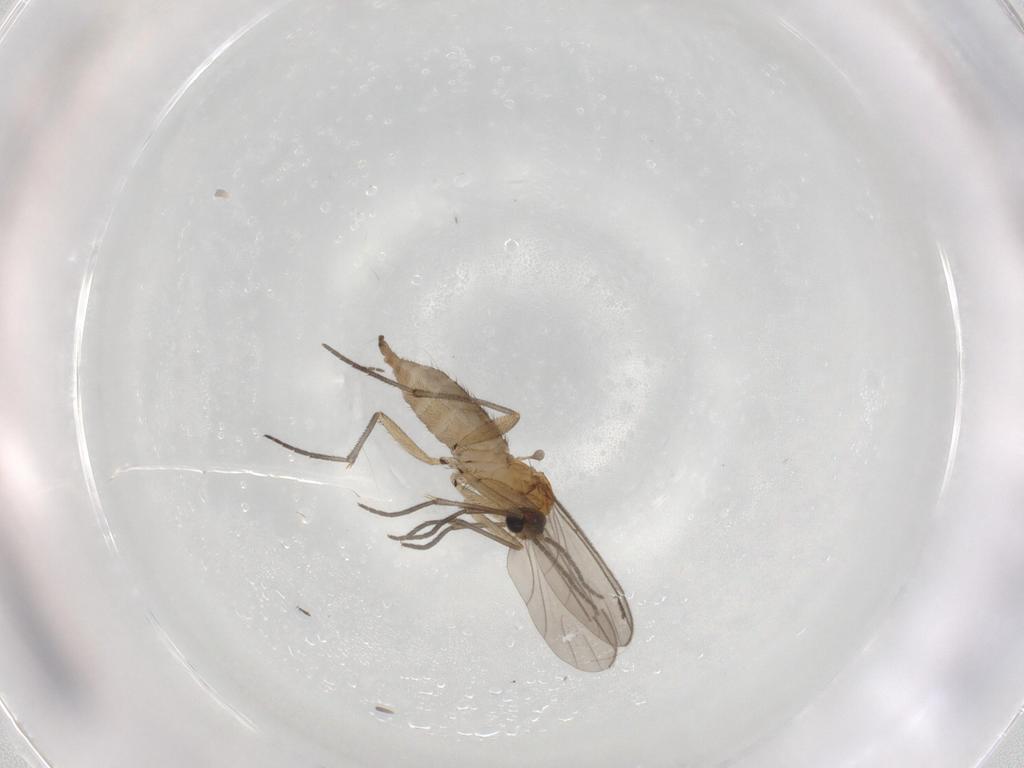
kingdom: Animalia
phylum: Arthropoda
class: Insecta
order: Diptera
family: Sciaridae
